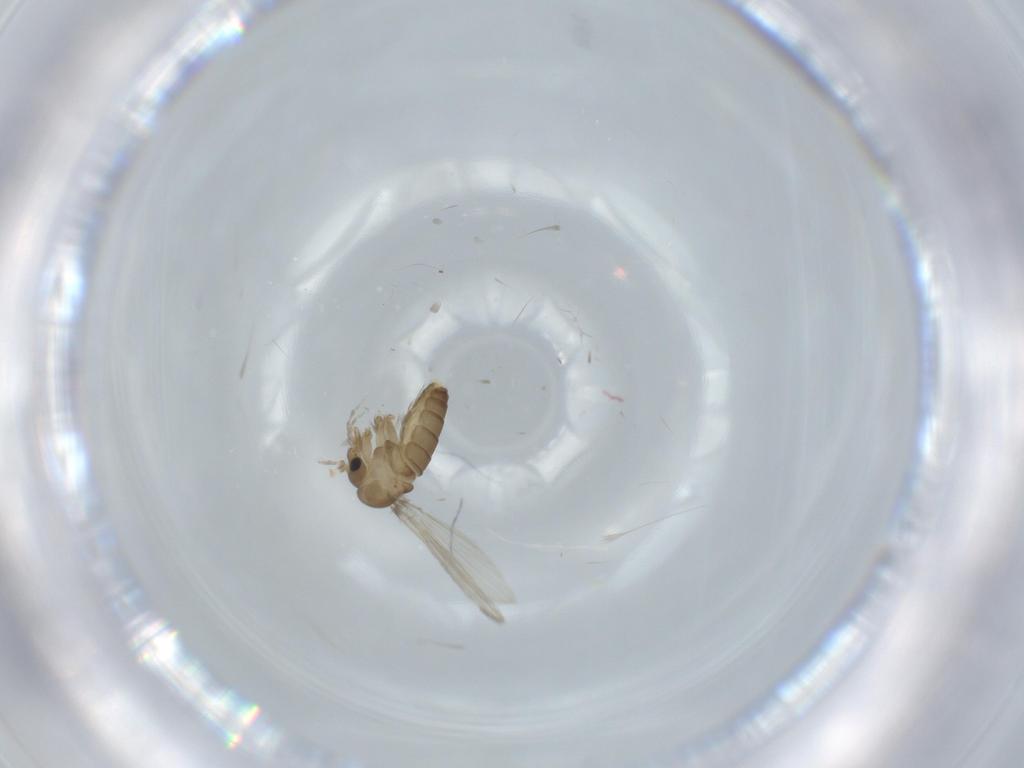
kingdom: Animalia
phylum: Arthropoda
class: Insecta
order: Diptera
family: Psychodidae
